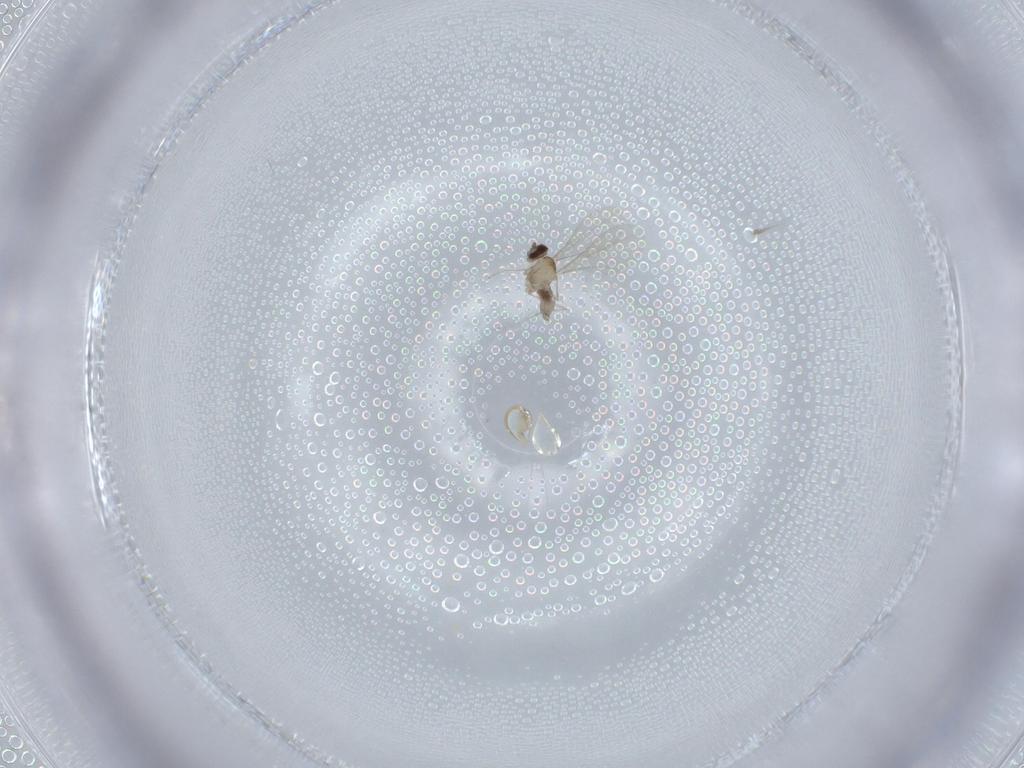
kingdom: Animalia
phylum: Arthropoda
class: Insecta
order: Diptera
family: Cecidomyiidae
